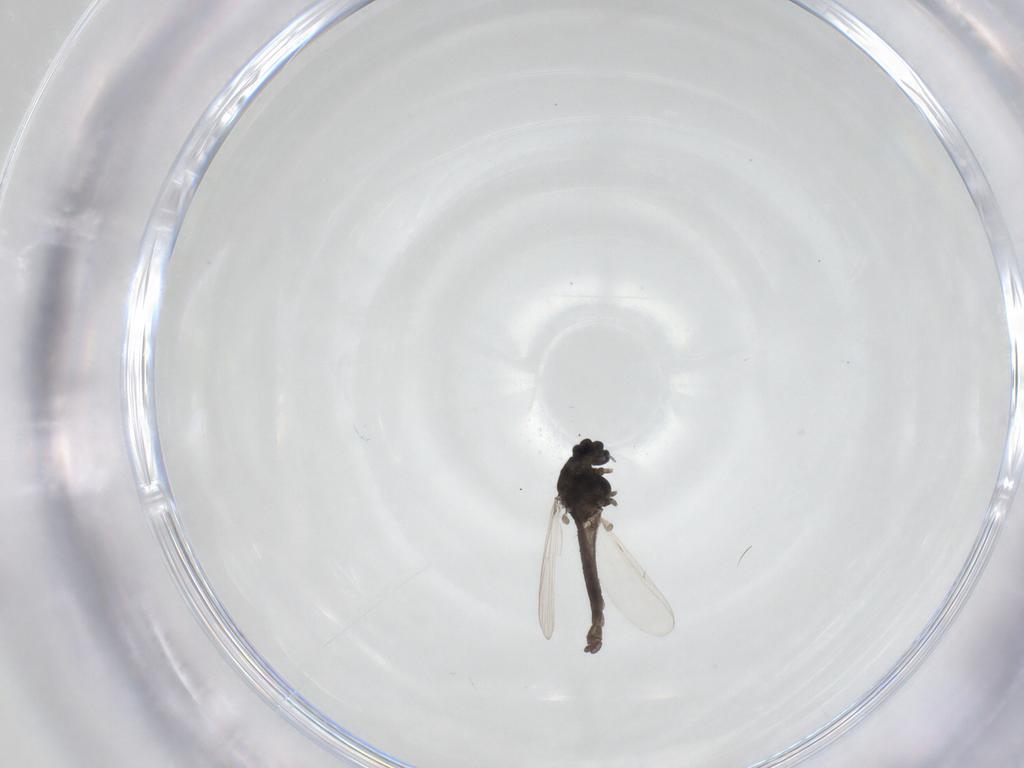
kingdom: Animalia
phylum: Arthropoda
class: Insecta
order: Diptera
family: Chironomidae
